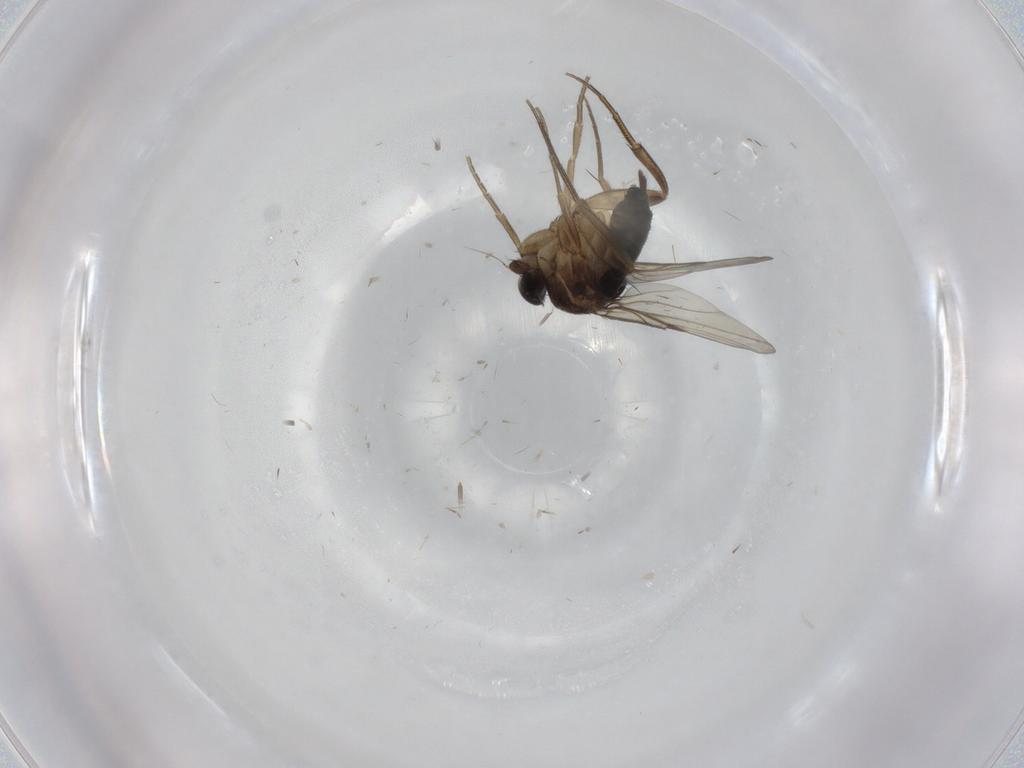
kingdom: Animalia
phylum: Arthropoda
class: Insecta
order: Diptera
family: Phoridae
